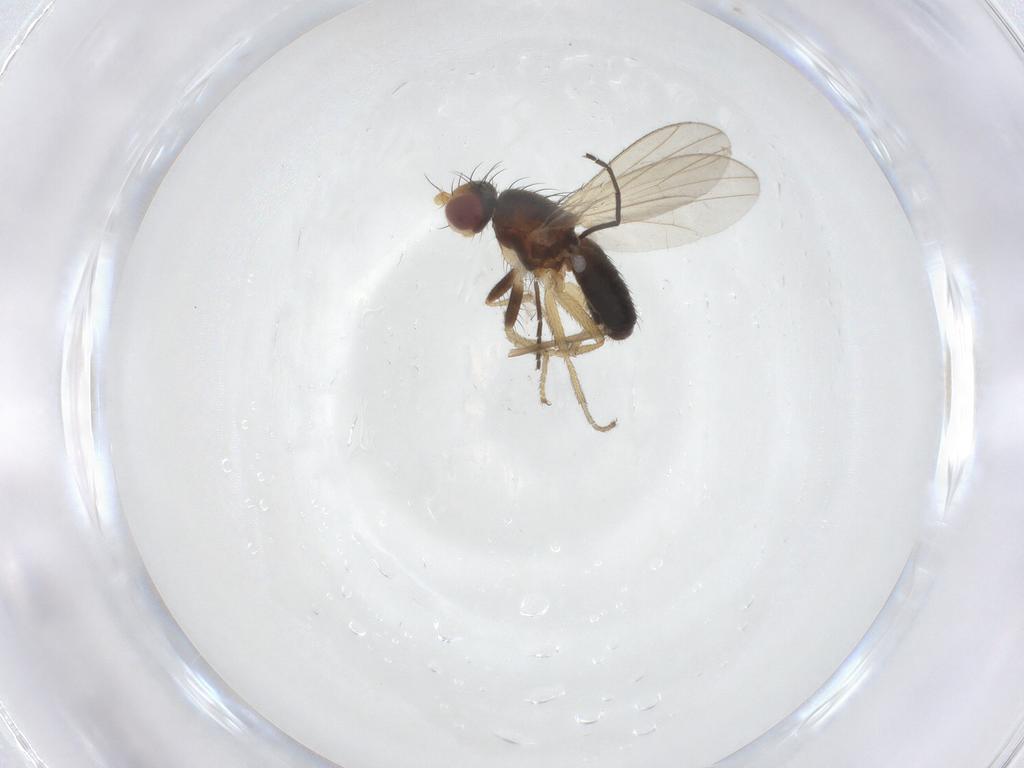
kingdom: Animalia
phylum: Arthropoda
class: Insecta
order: Diptera
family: Heleomyzidae
